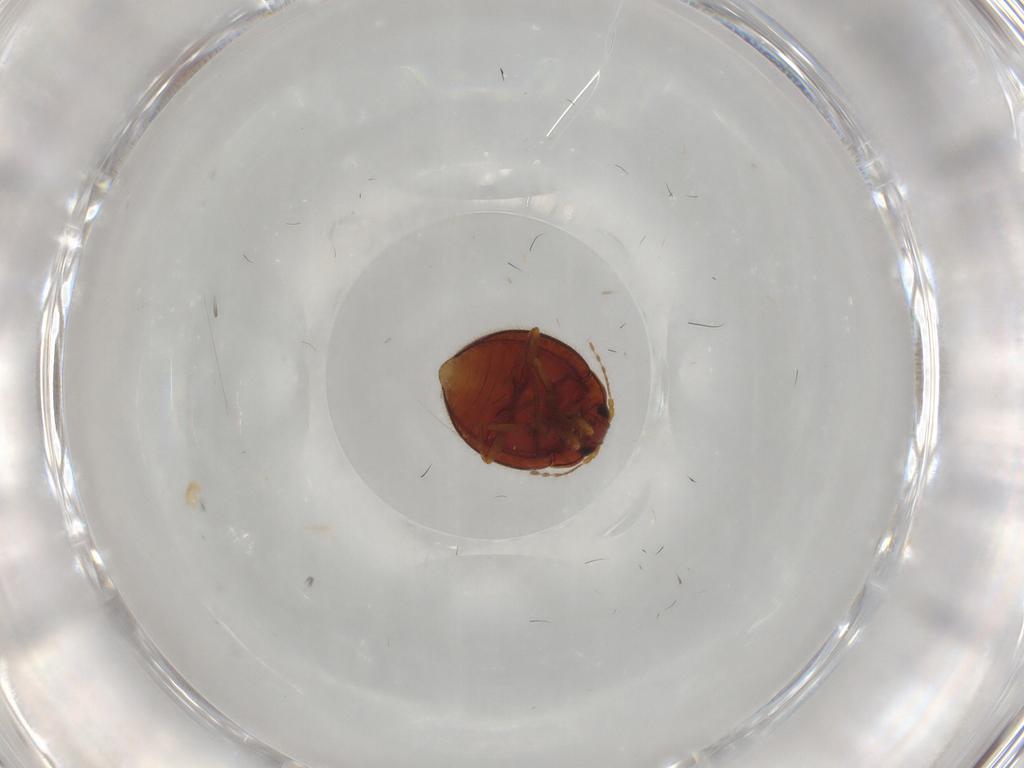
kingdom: Animalia
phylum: Arthropoda
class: Insecta
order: Coleoptera
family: Anamorphidae
